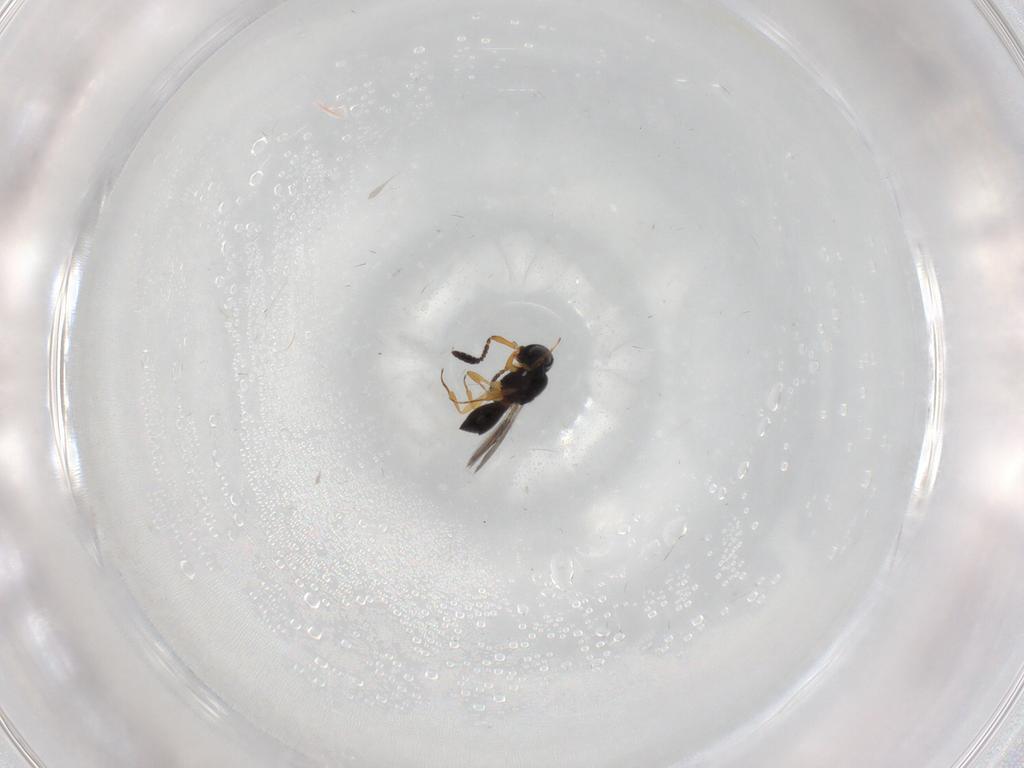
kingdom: Animalia
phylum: Arthropoda
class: Insecta
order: Hymenoptera
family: Scelionidae
